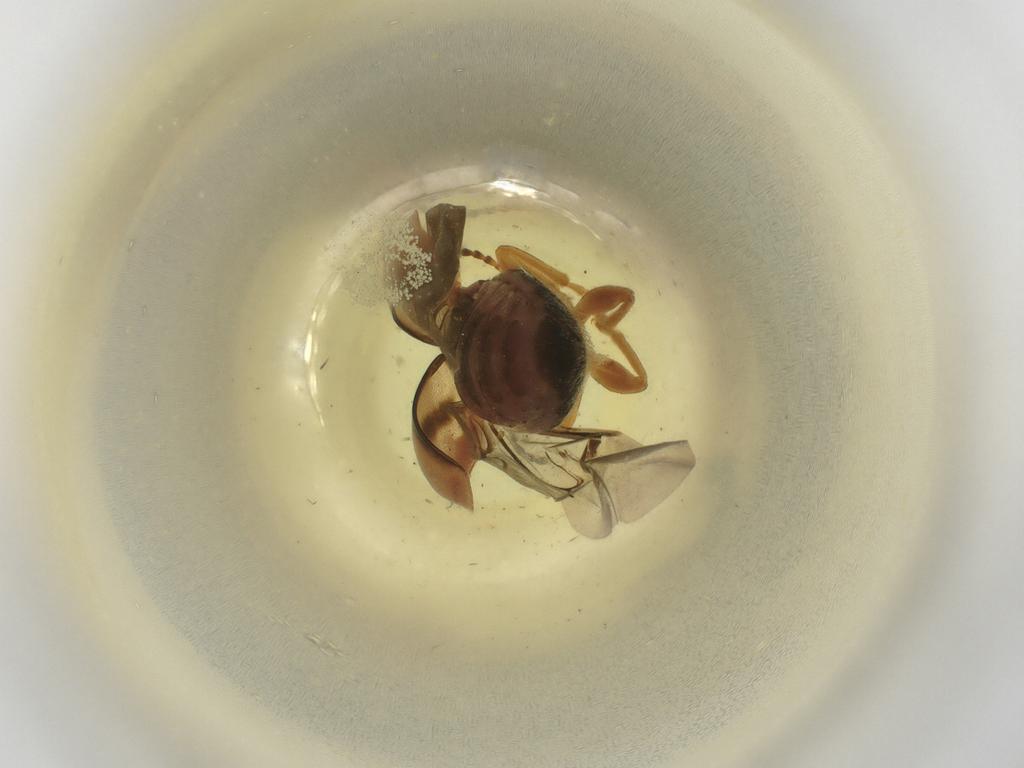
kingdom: Animalia
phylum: Arthropoda
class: Insecta
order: Coleoptera
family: Chrysomelidae
